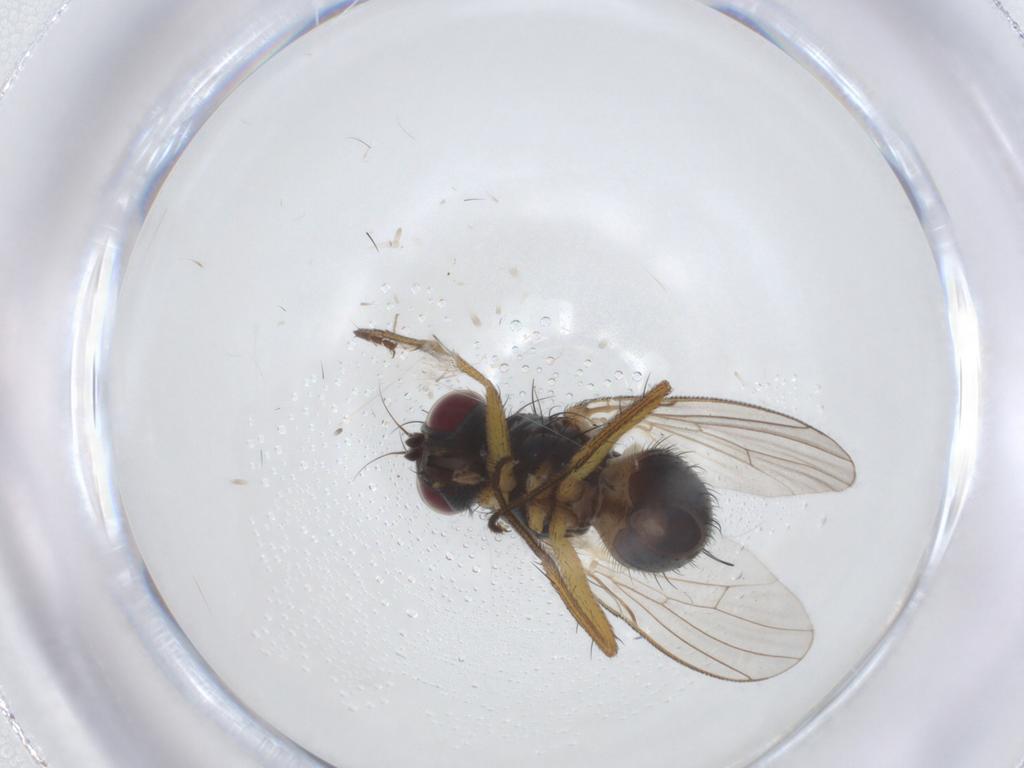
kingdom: Animalia
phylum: Arthropoda
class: Insecta
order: Diptera
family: Muscidae
